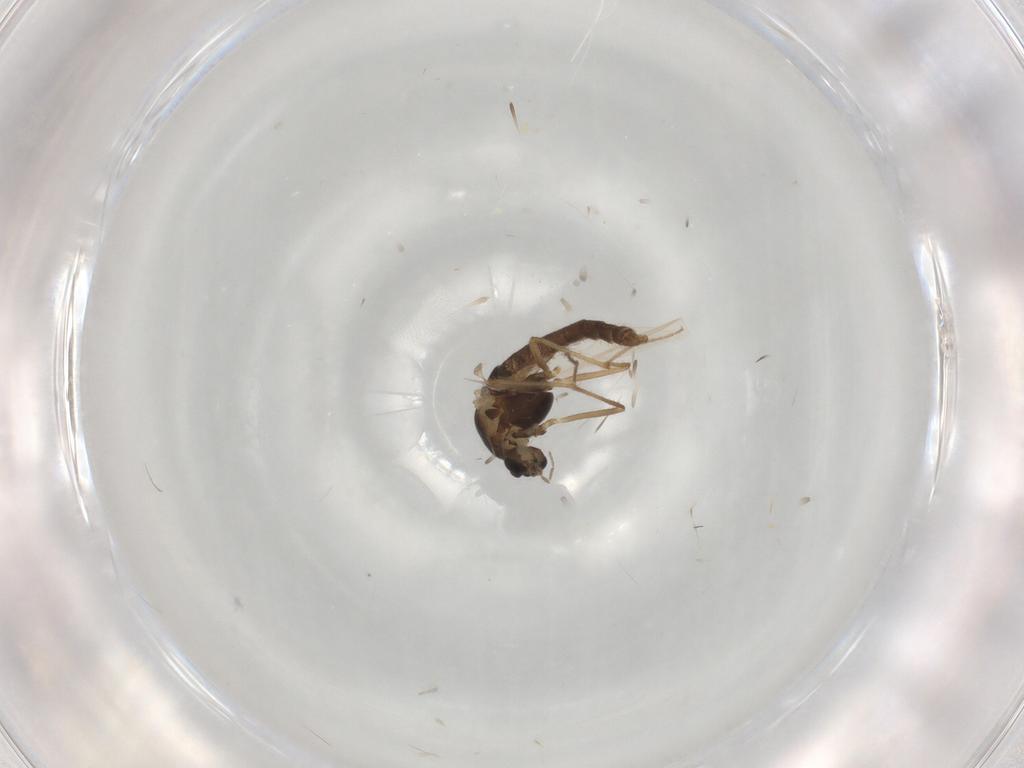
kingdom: Animalia
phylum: Arthropoda
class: Insecta
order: Diptera
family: Chironomidae
